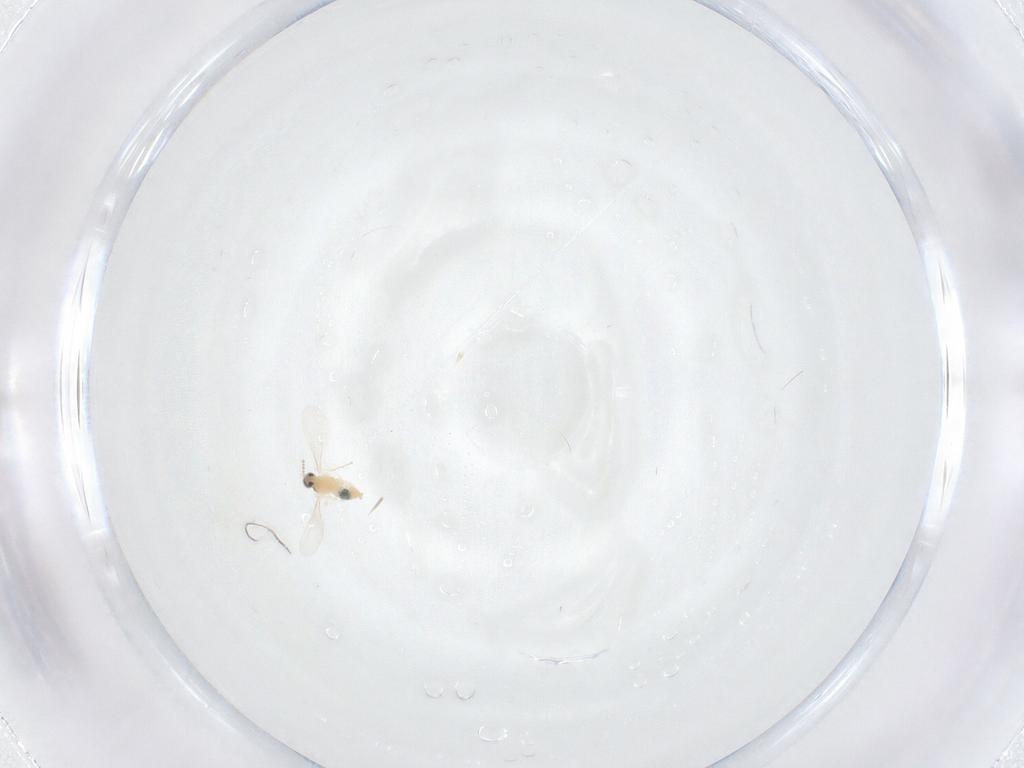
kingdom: Animalia
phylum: Arthropoda
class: Insecta
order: Diptera
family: Cecidomyiidae
